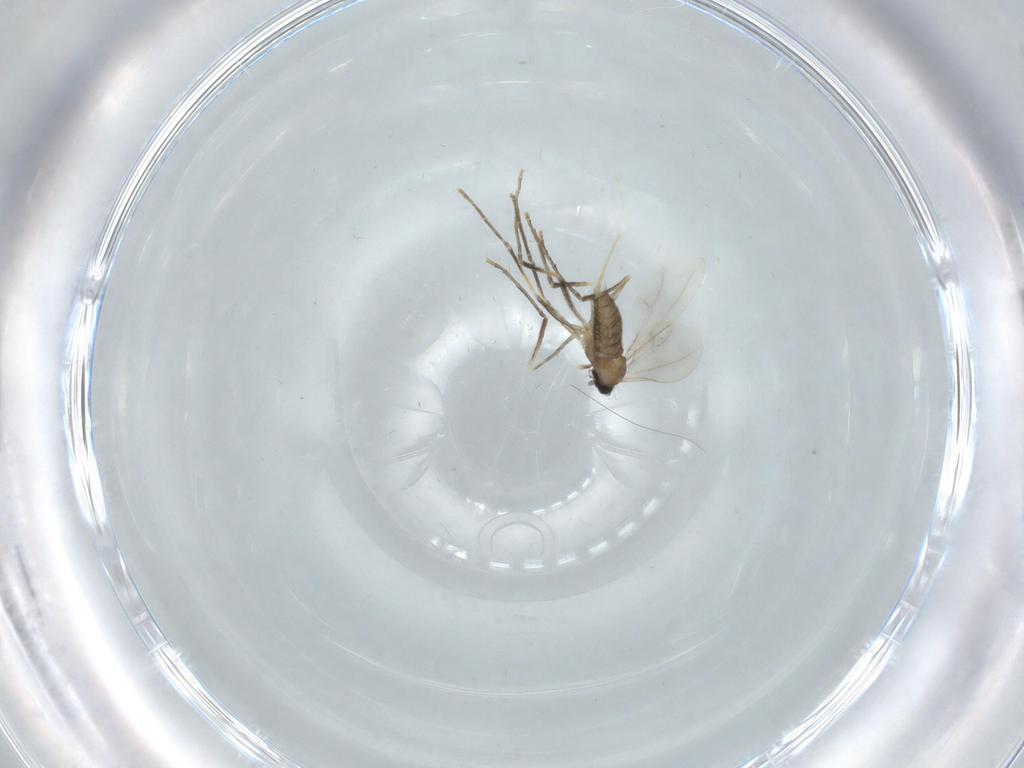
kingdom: Animalia
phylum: Arthropoda
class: Insecta
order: Diptera
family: Cecidomyiidae
